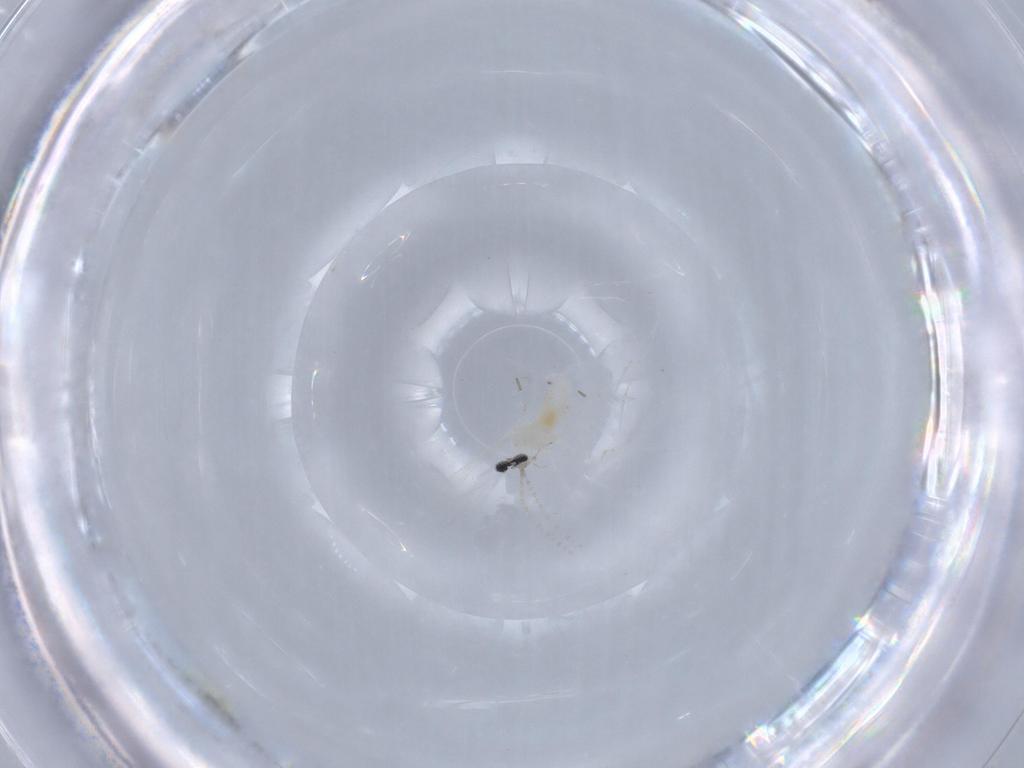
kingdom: Animalia
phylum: Arthropoda
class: Insecta
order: Diptera
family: Cecidomyiidae
